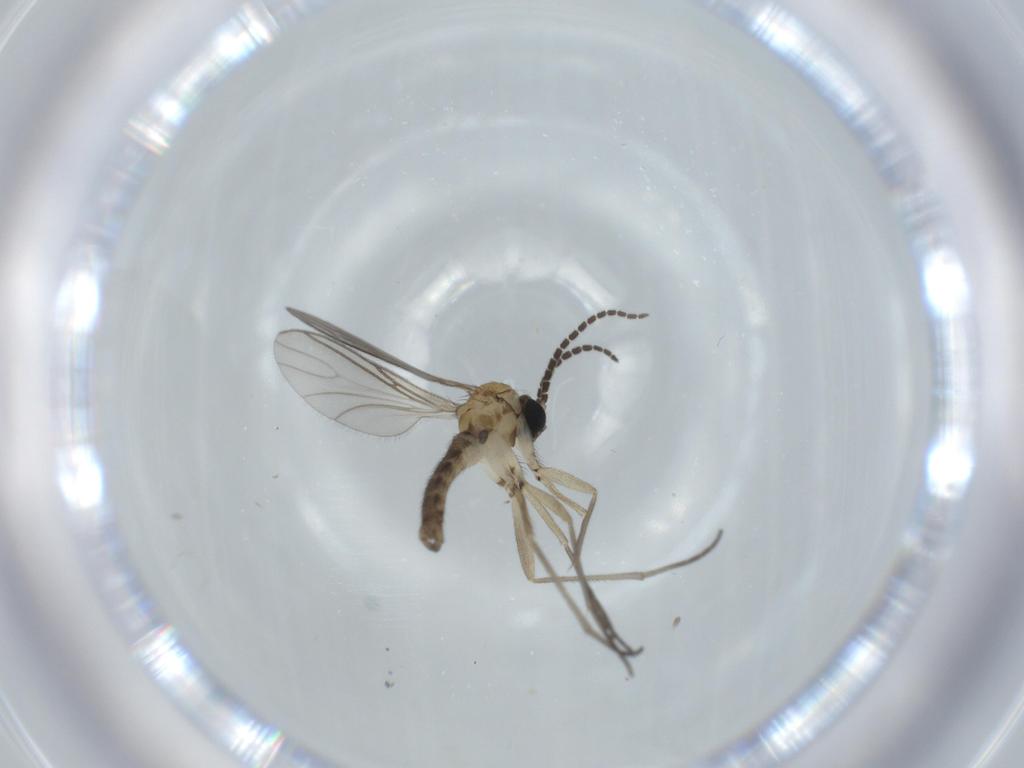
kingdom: Animalia
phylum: Arthropoda
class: Insecta
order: Diptera
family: Sciaridae
